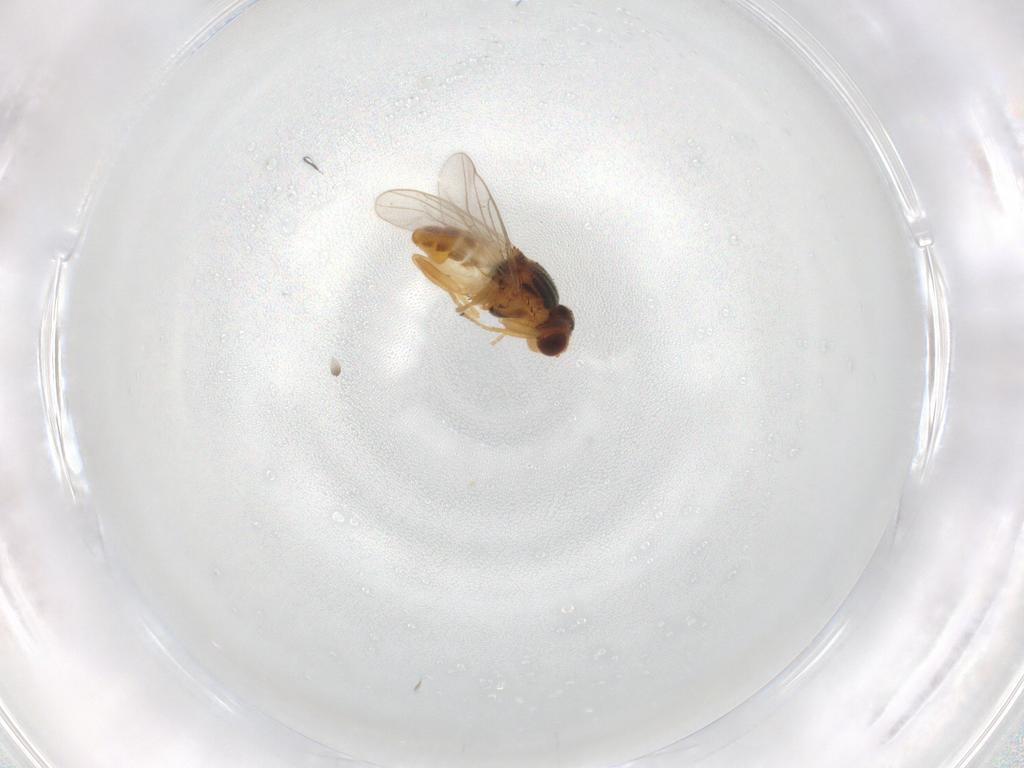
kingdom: Animalia
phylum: Arthropoda
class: Insecta
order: Diptera
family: Chloropidae
